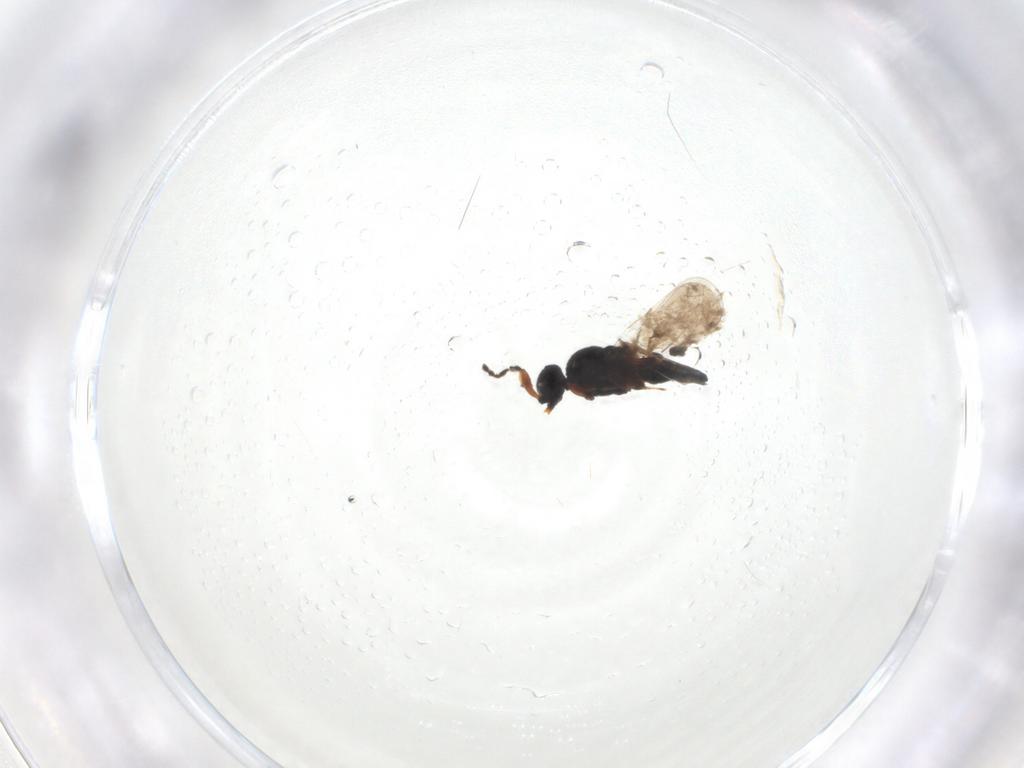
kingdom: Animalia
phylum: Arthropoda
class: Insecta
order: Hymenoptera
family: Platygastridae
